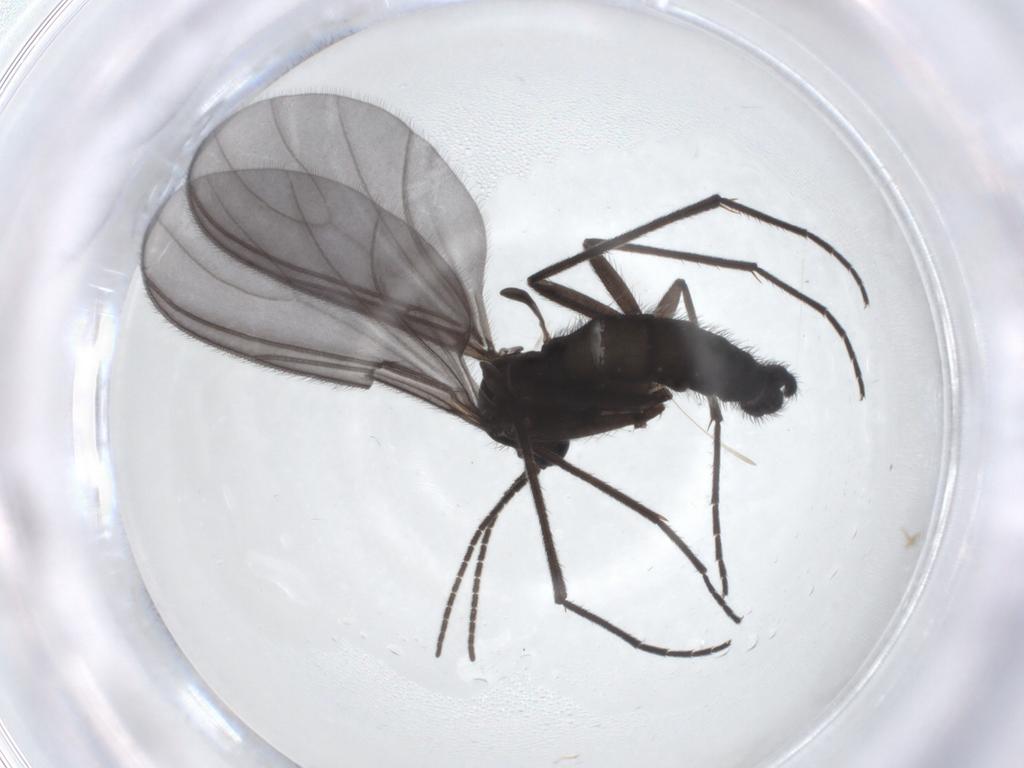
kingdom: Animalia
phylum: Arthropoda
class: Insecta
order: Diptera
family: Sciaridae
